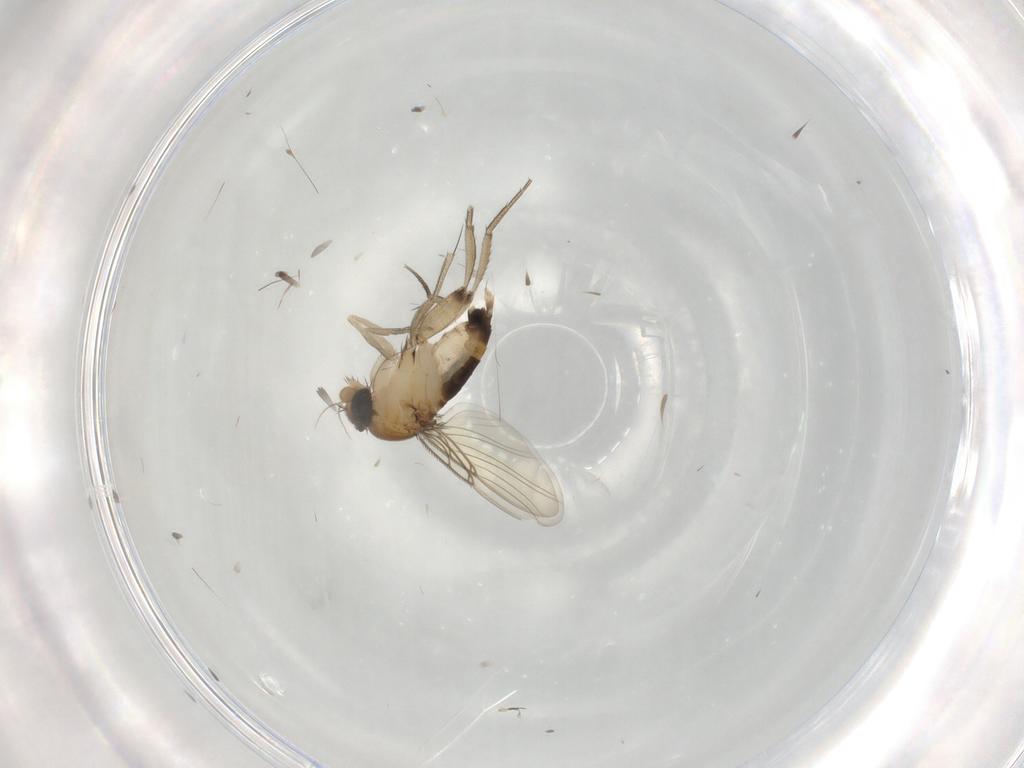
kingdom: Animalia
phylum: Arthropoda
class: Insecta
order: Diptera
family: Phoridae
